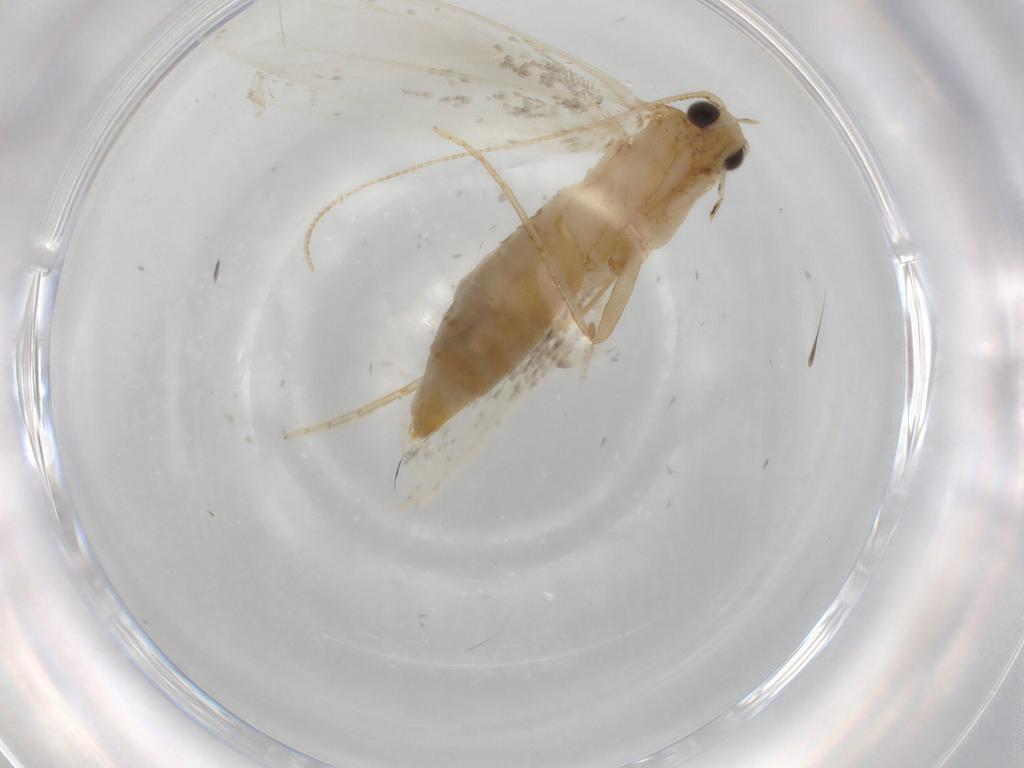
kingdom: Animalia
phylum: Arthropoda
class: Insecta
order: Lepidoptera
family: Tineidae
